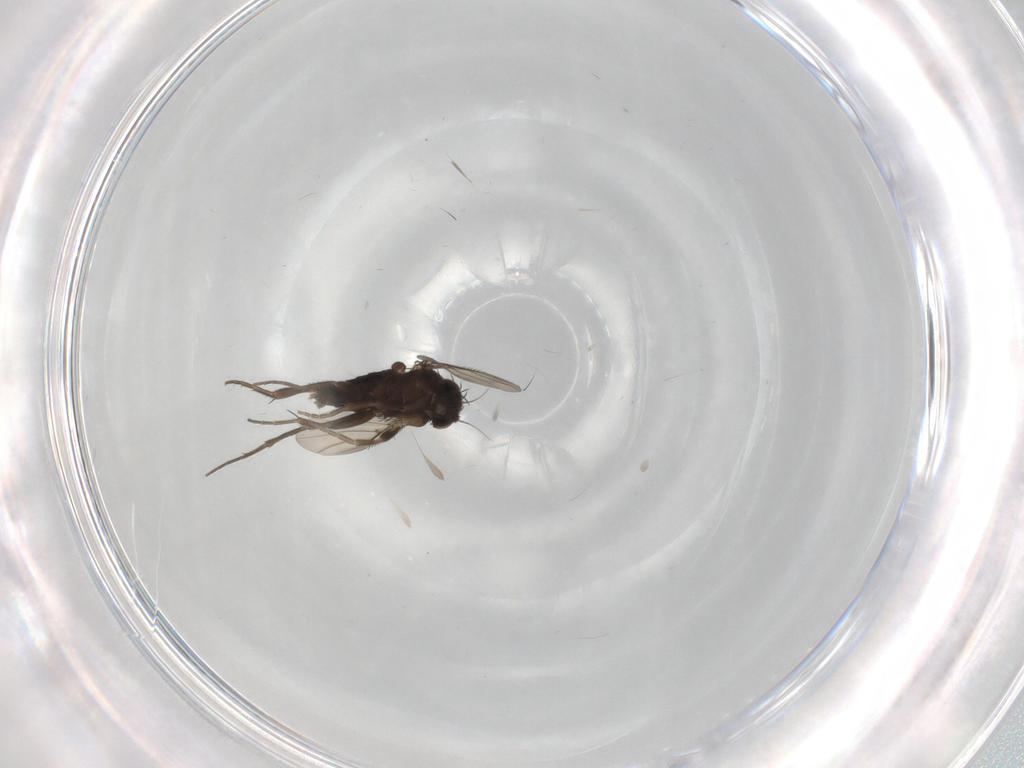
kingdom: Animalia
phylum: Arthropoda
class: Insecta
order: Diptera
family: Phoridae
